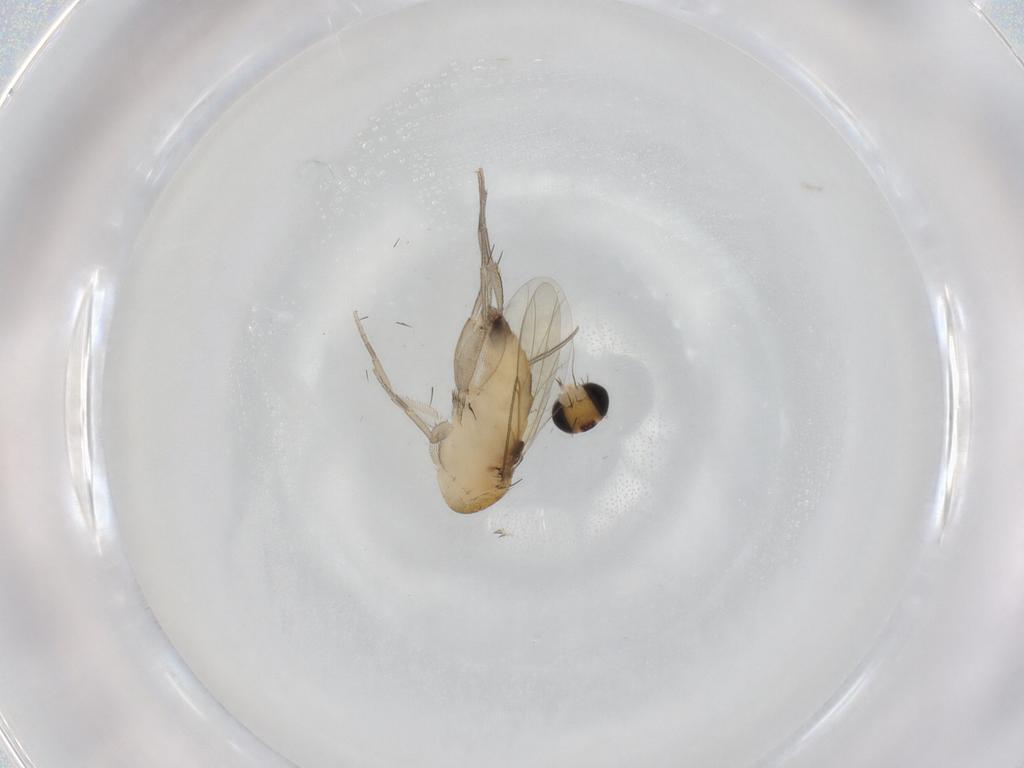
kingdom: Animalia
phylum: Arthropoda
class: Insecta
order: Diptera
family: Phoridae
